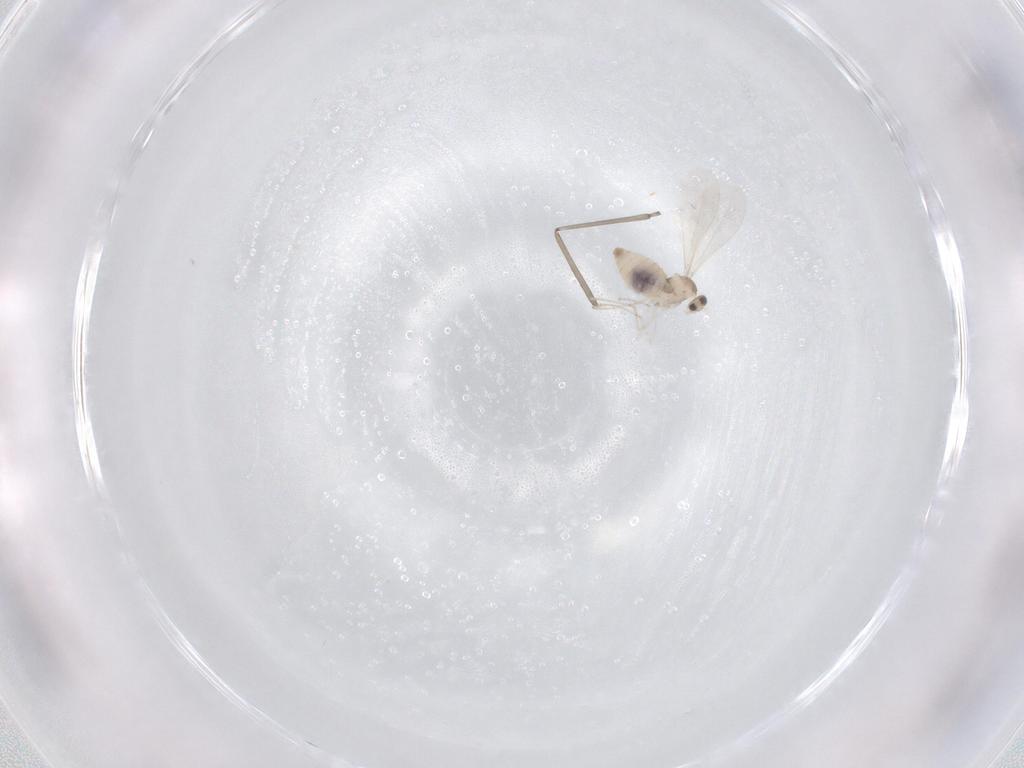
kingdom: Animalia
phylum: Arthropoda
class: Insecta
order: Diptera
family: Cecidomyiidae
